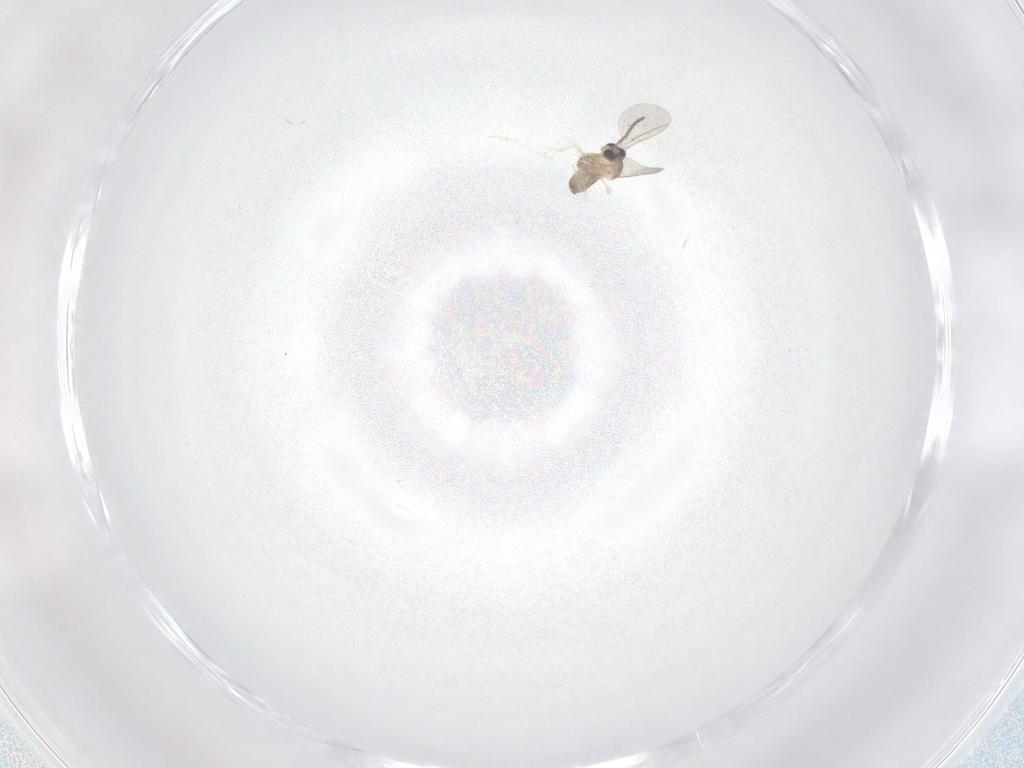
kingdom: Animalia
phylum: Arthropoda
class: Insecta
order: Diptera
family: Cecidomyiidae
